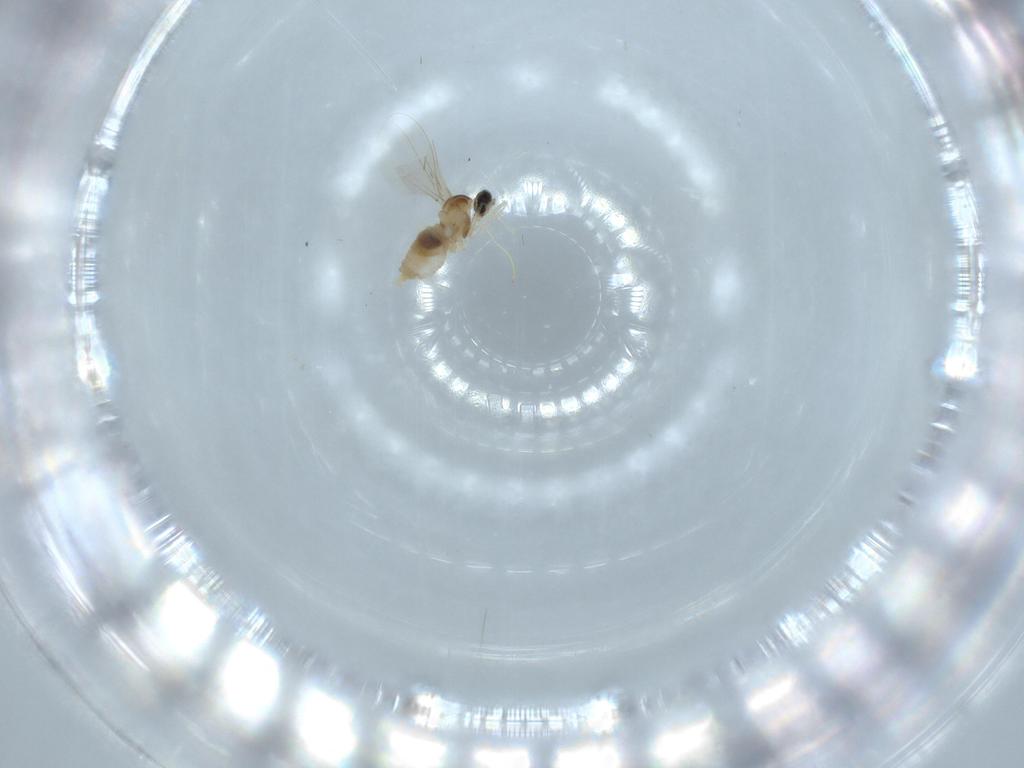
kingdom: Animalia
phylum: Arthropoda
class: Insecta
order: Diptera
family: Cecidomyiidae
